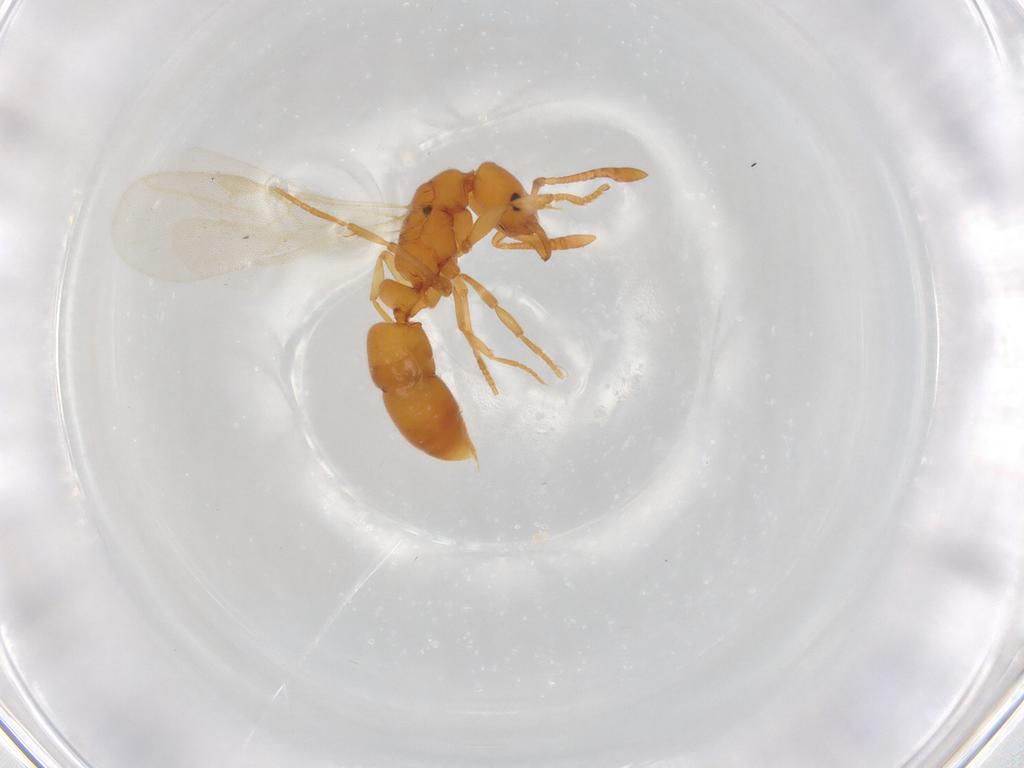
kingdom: Animalia
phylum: Arthropoda
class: Insecta
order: Hymenoptera
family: Formicidae
